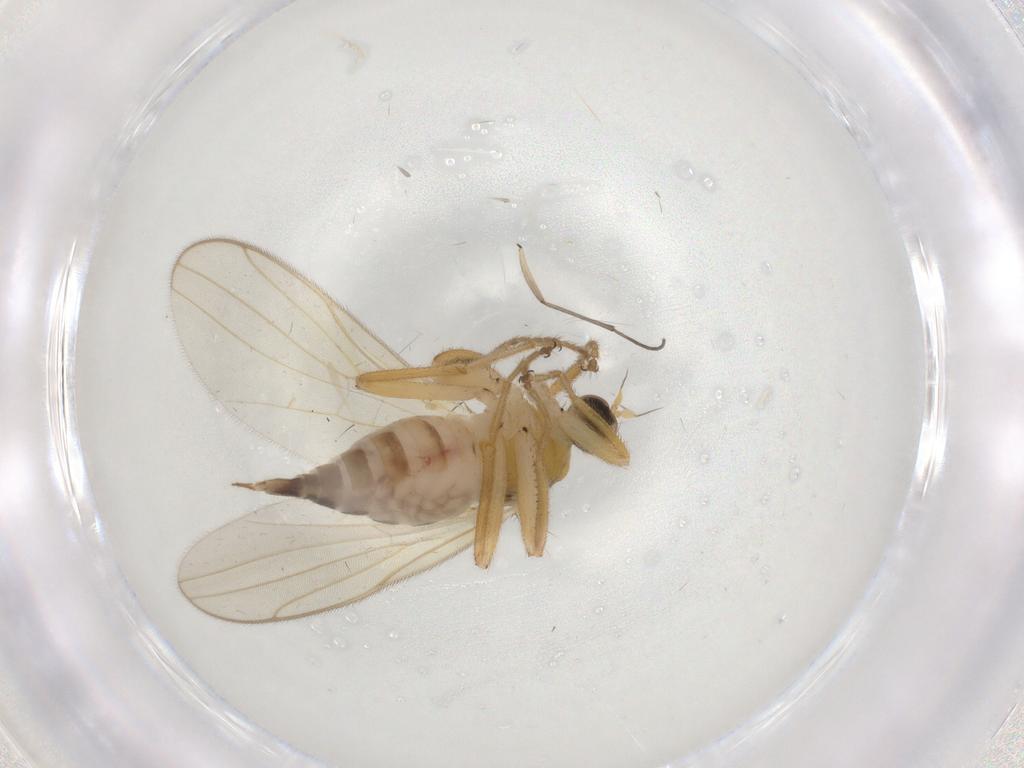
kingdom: Animalia
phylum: Arthropoda
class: Insecta
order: Diptera
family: Hybotidae
